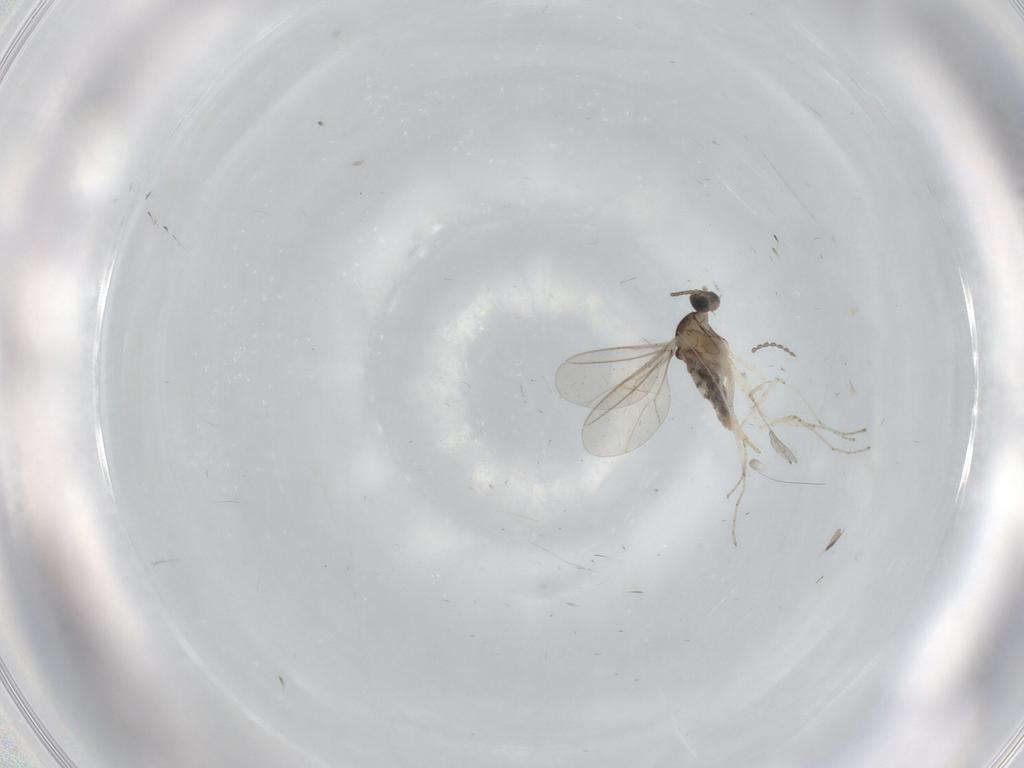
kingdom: Animalia
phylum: Arthropoda
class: Insecta
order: Diptera
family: Cecidomyiidae
